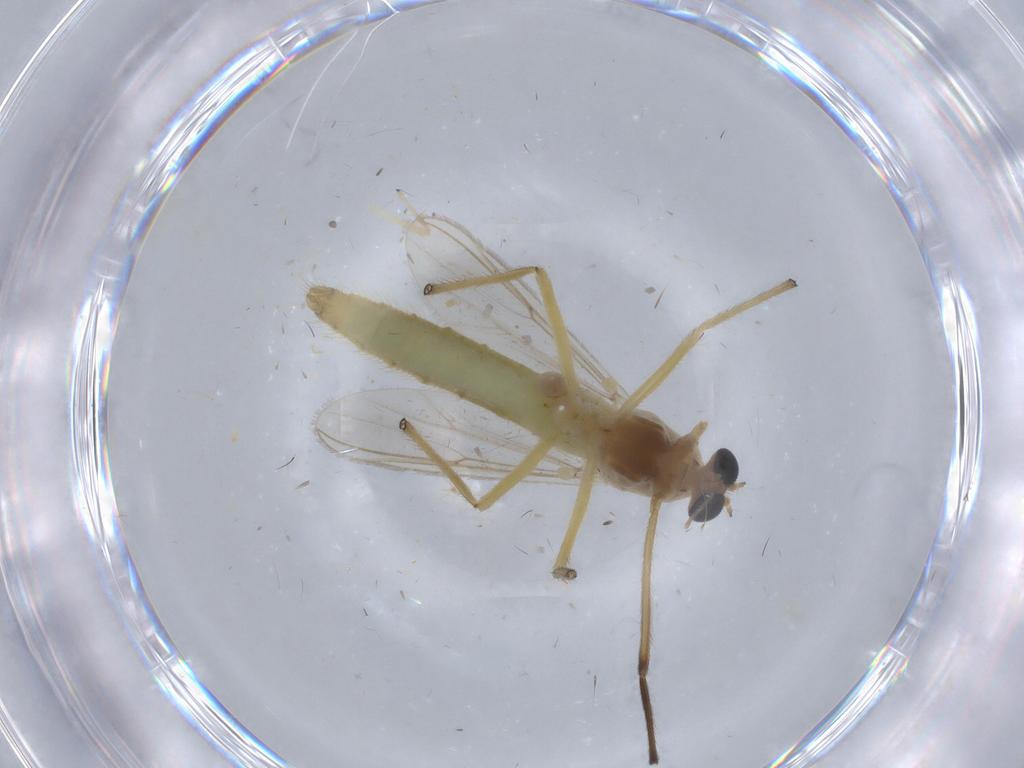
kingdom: Animalia
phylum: Arthropoda
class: Insecta
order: Diptera
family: Chironomidae
